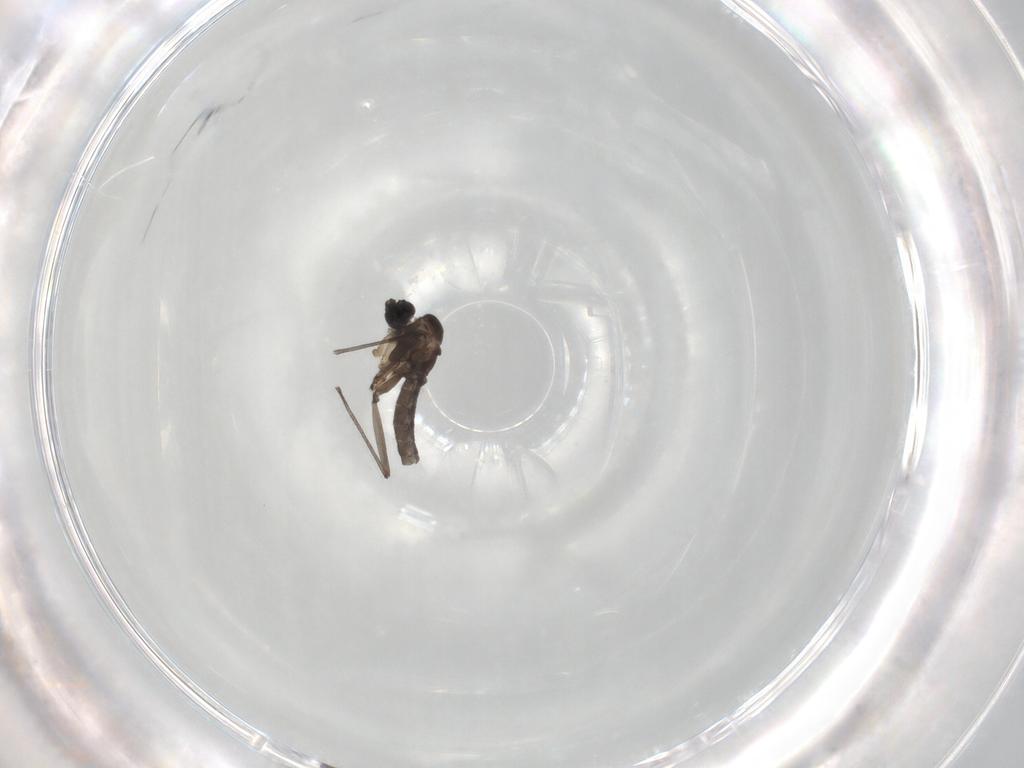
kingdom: Animalia
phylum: Arthropoda
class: Insecta
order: Diptera
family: Sciaridae
